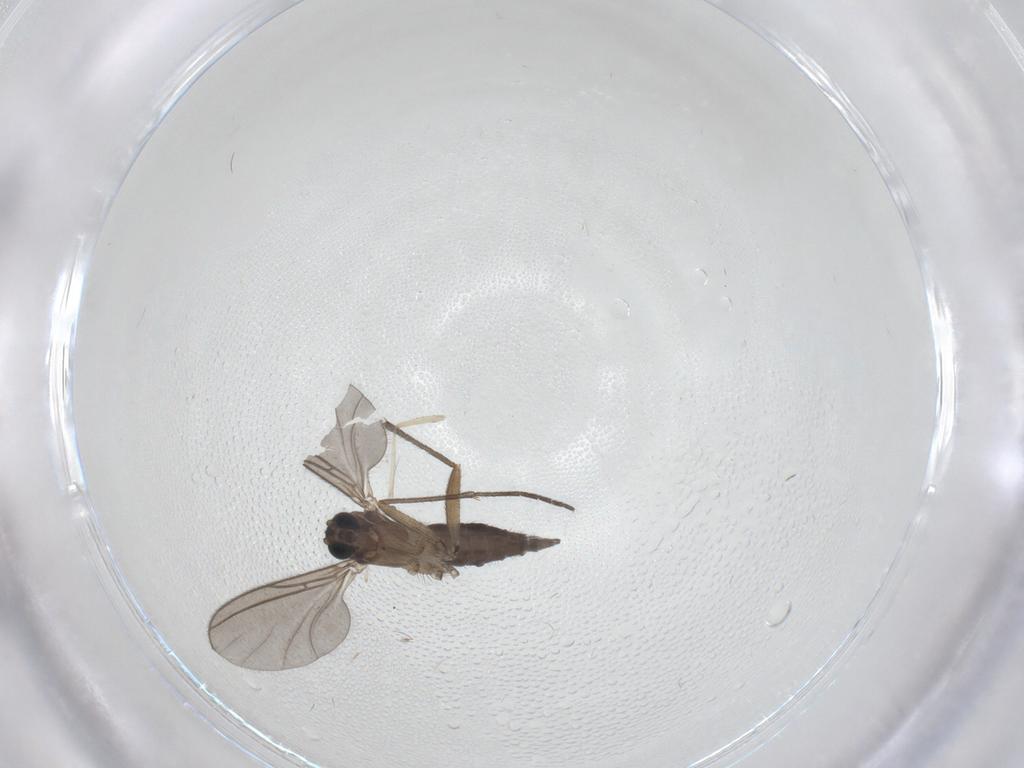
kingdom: Animalia
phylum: Arthropoda
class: Insecta
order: Diptera
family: Sciaridae
